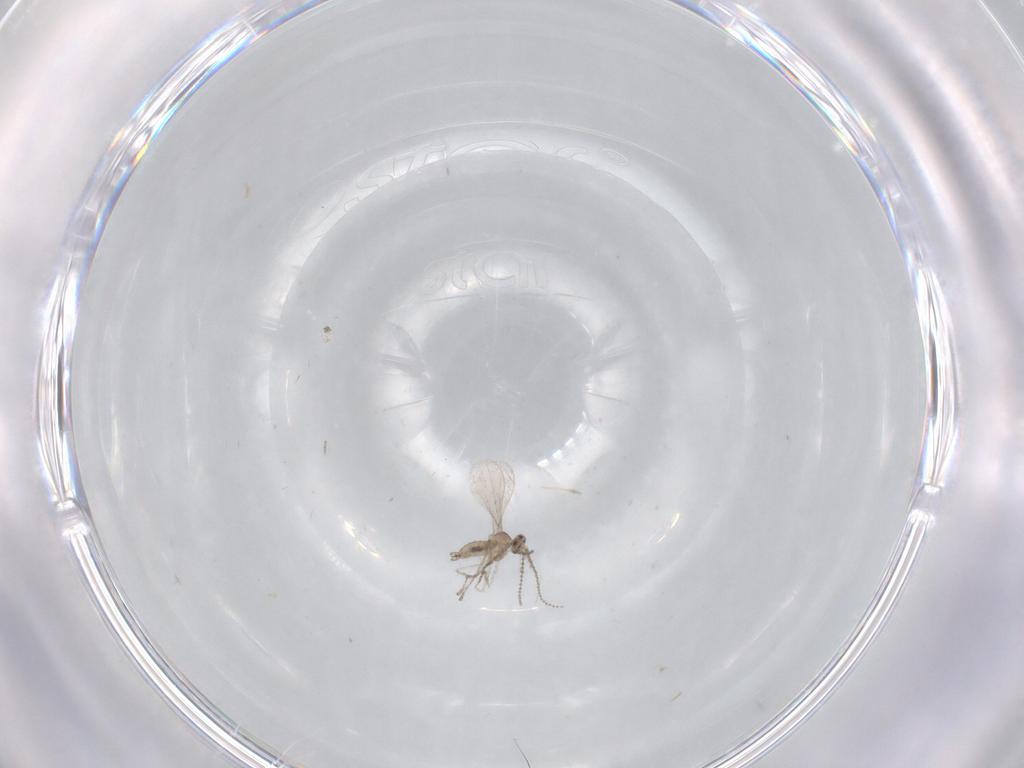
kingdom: Animalia
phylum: Arthropoda
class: Insecta
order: Diptera
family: Cecidomyiidae
